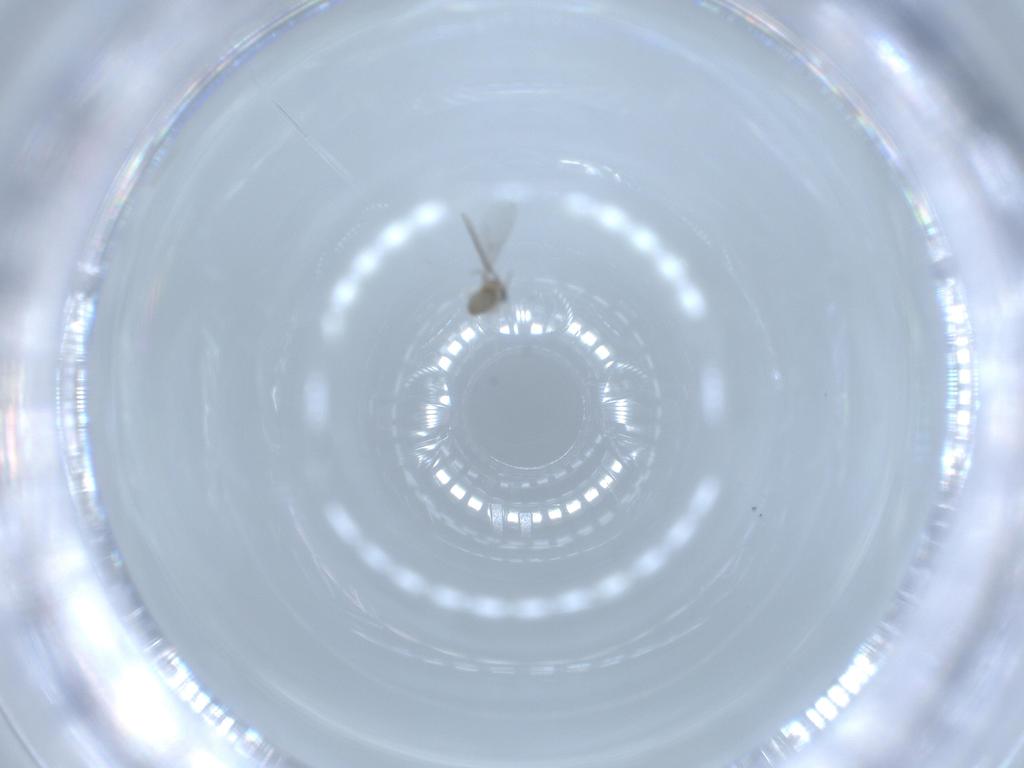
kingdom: Animalia
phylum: Arthropoda
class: Insecta
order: Diptera
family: Cecidomyiidae
